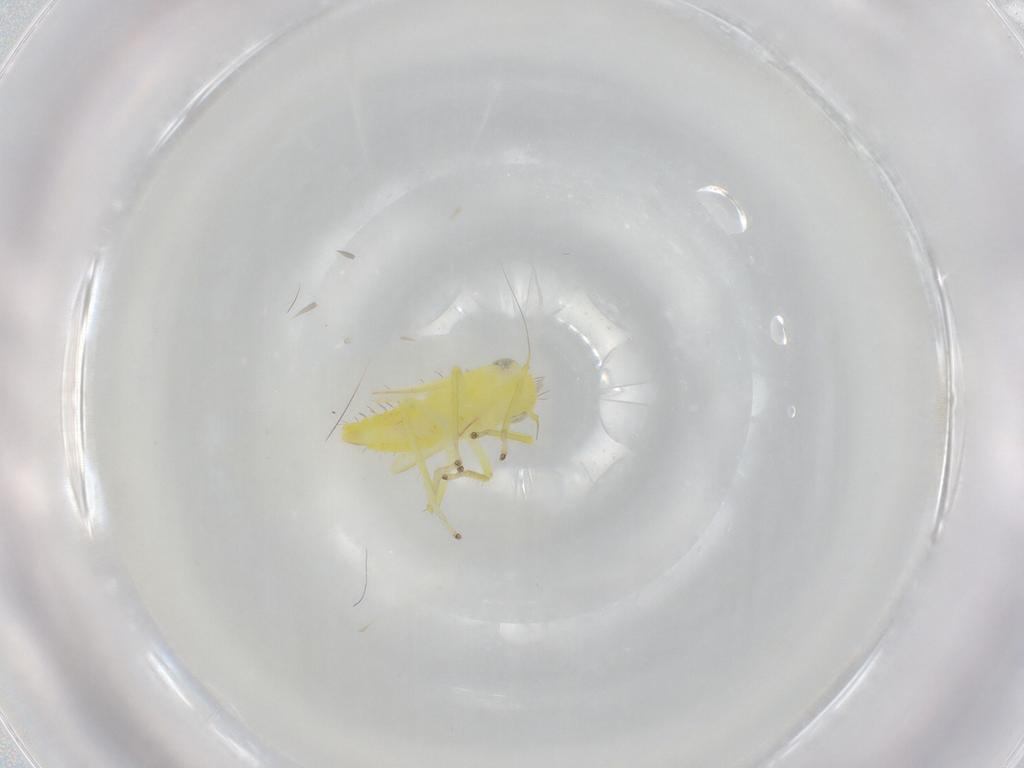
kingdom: Animalia
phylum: Arthropoda
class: Insecta
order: Hemiptera
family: Cicadellidae
